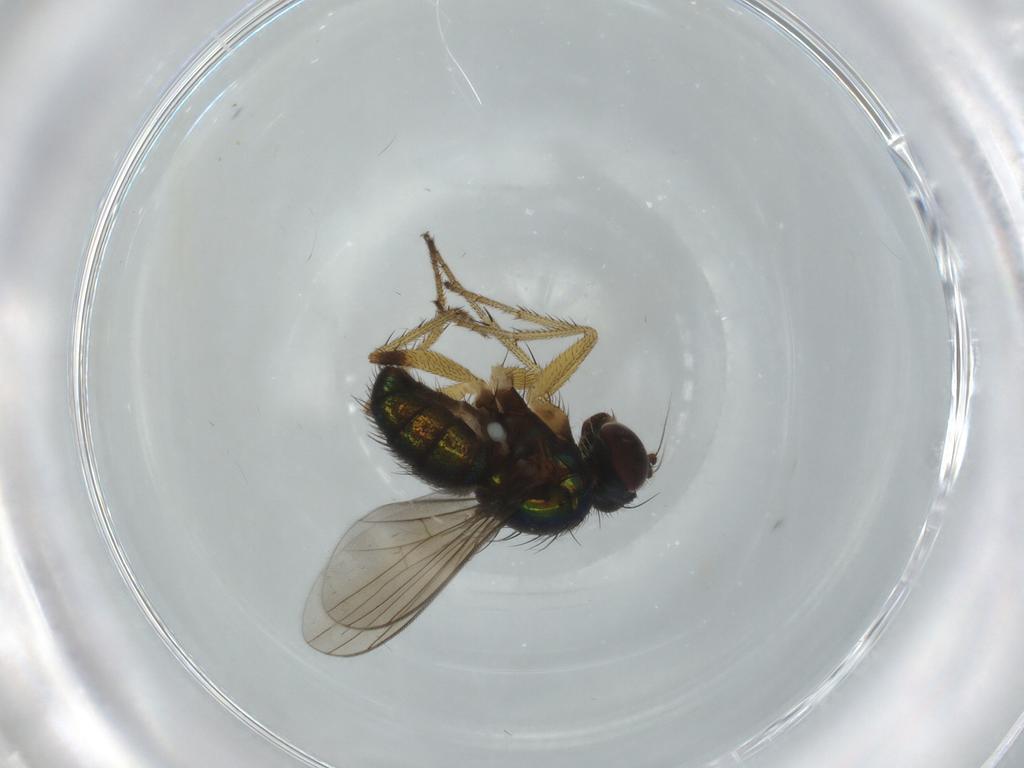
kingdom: Animalia
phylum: Arthropoda
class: Insecta
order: Diptera
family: Dolichopodidae
